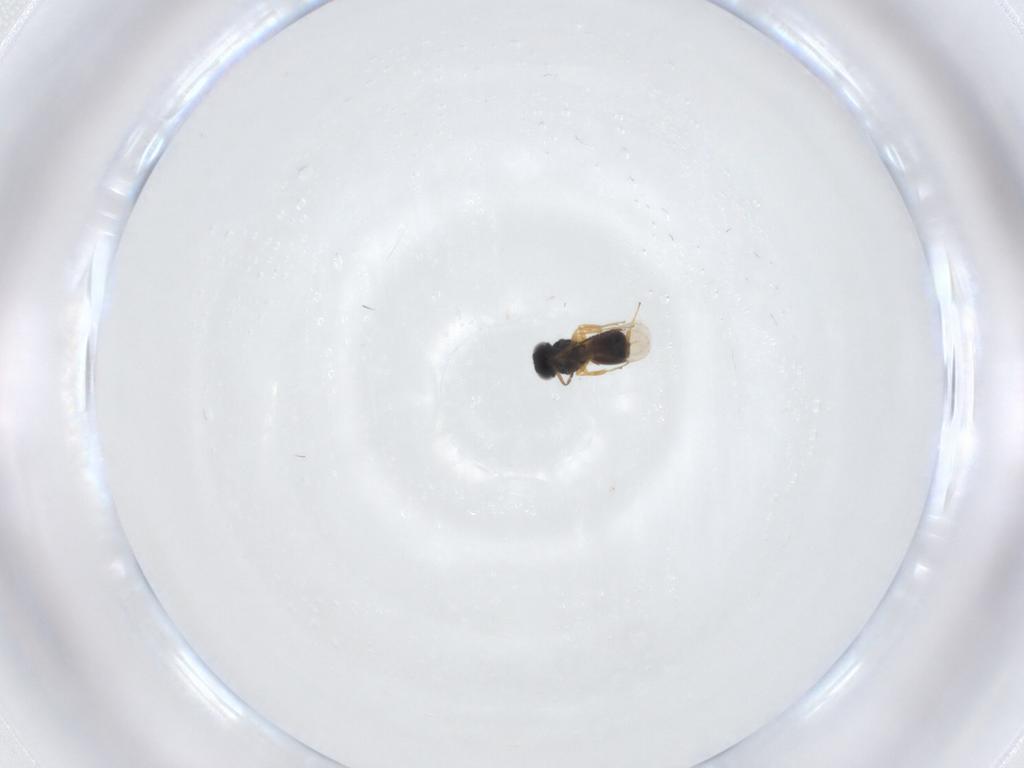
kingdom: Animalia
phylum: Arthropoda
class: Insecta
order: Hymenoptera
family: Scelionidae
